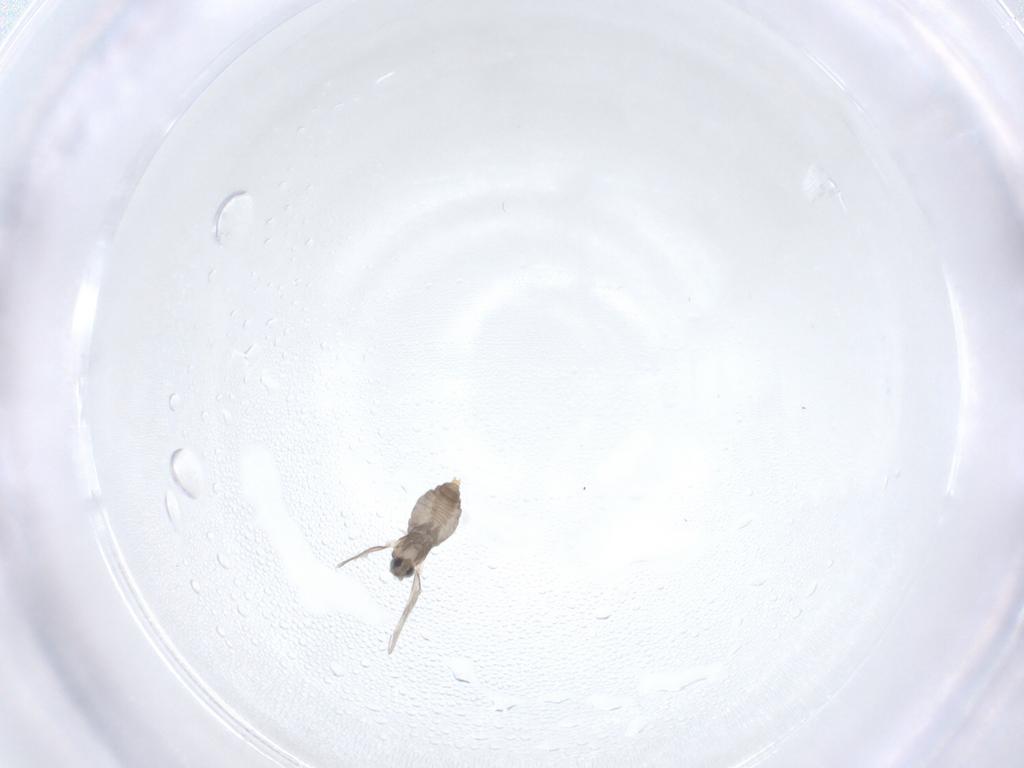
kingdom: Animalia
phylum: Arthropoda
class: Insecta
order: Diptera
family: Cecidomyiidae
